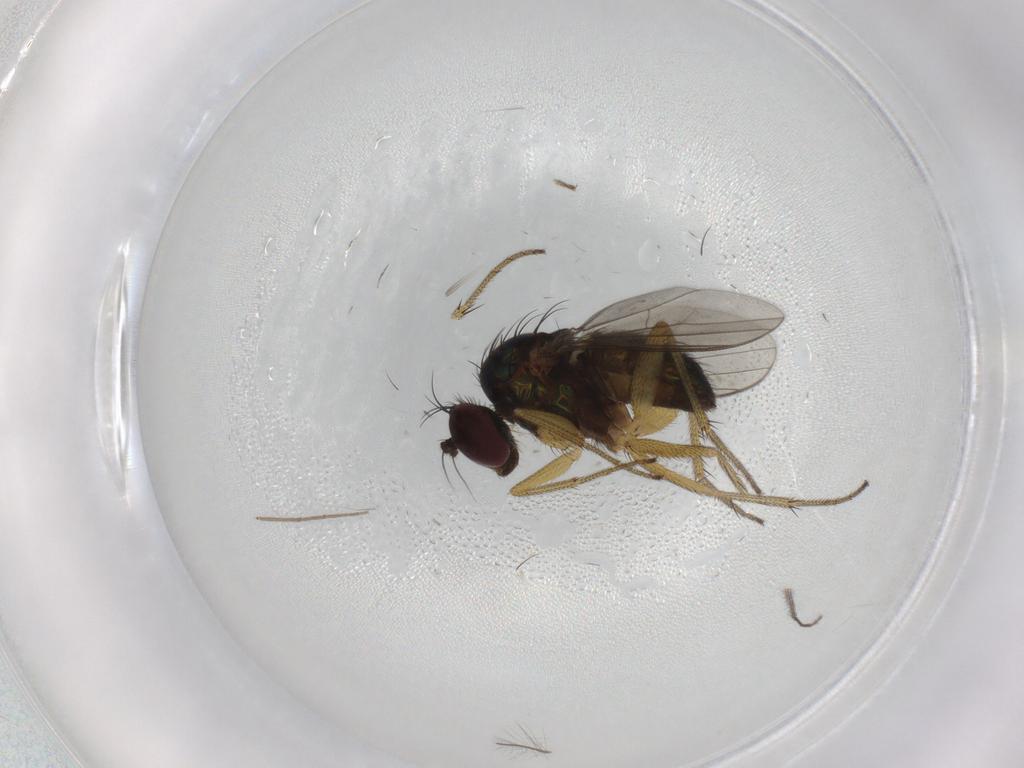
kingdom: Animalia
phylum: Arthropoda
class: Insecta
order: Diptera
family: Chironomidae
